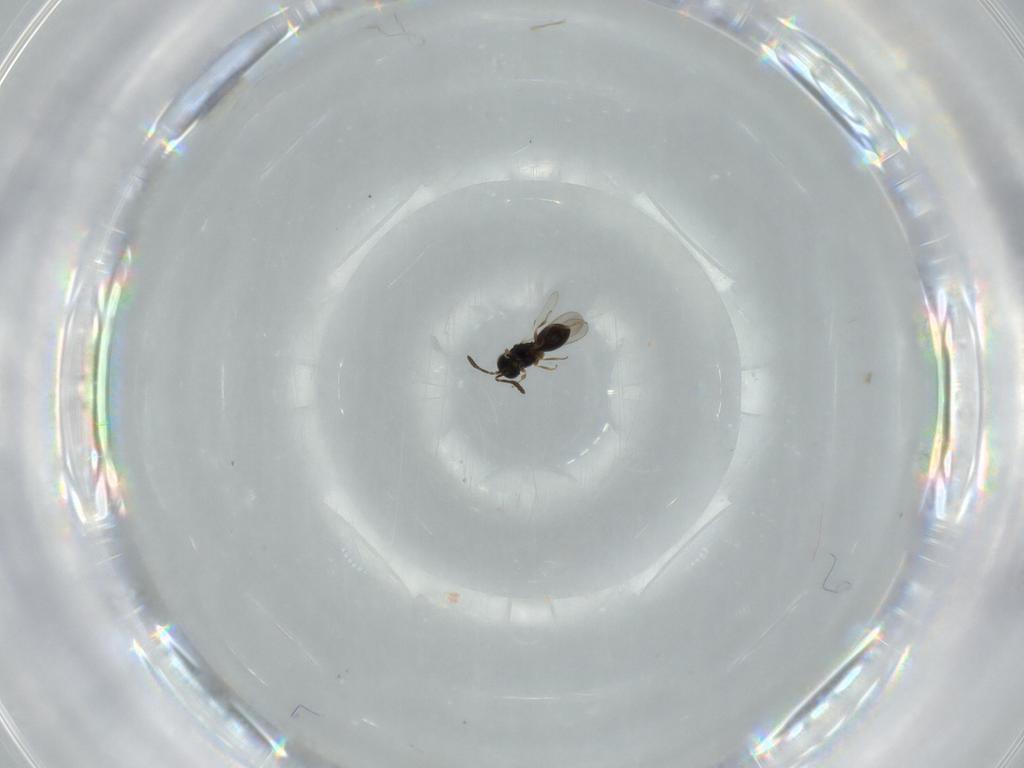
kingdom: Animalia
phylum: Arthropoda
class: Insecta
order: Hymenoptera
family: Scelionidae
